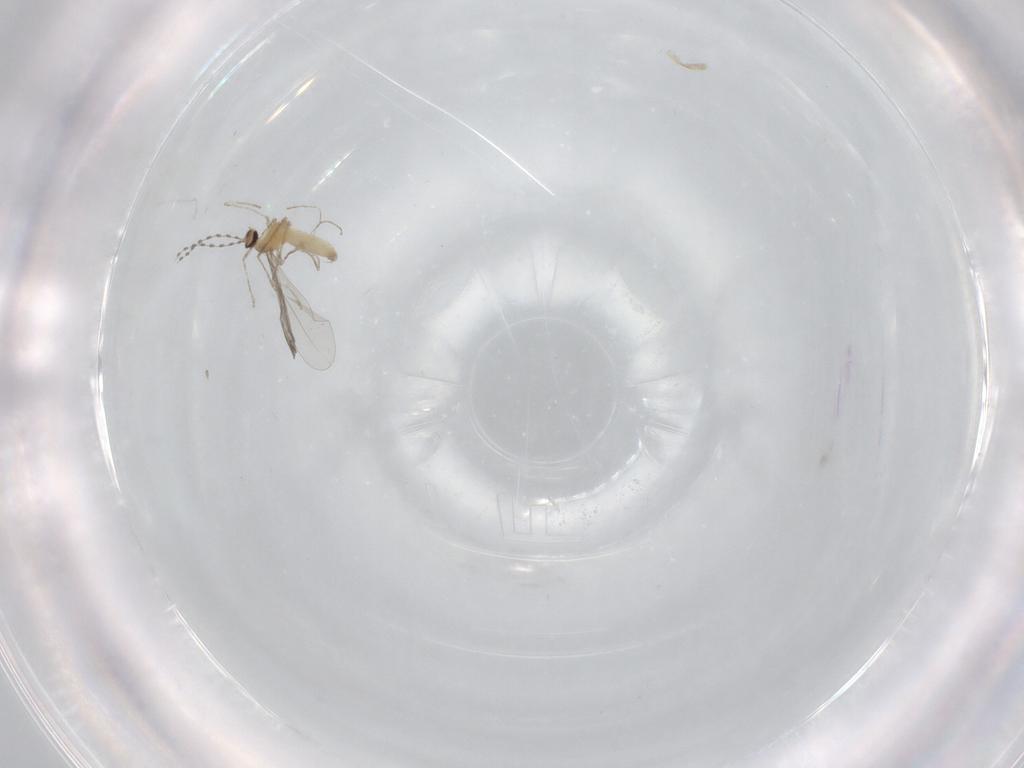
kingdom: Animalia
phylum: Arthropoda
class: Insecta
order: Diptera
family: Cecidomyiidae
